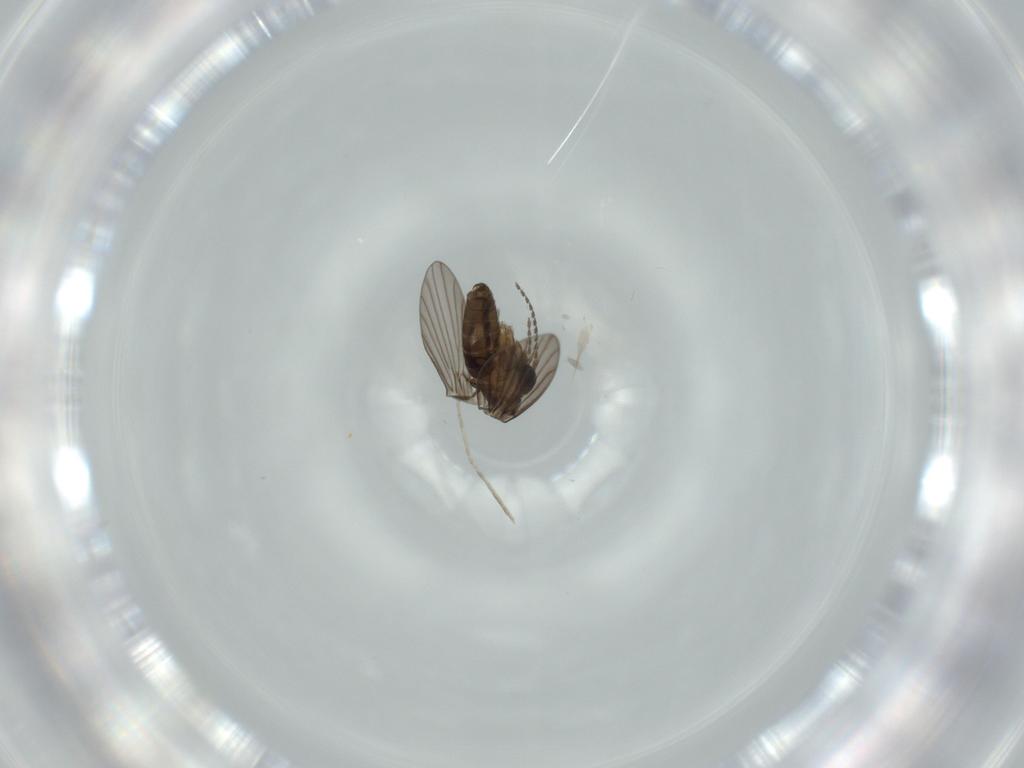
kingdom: Animalia
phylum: Arthropoda
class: Insecta
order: Diptera
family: Cecidomyiidae
